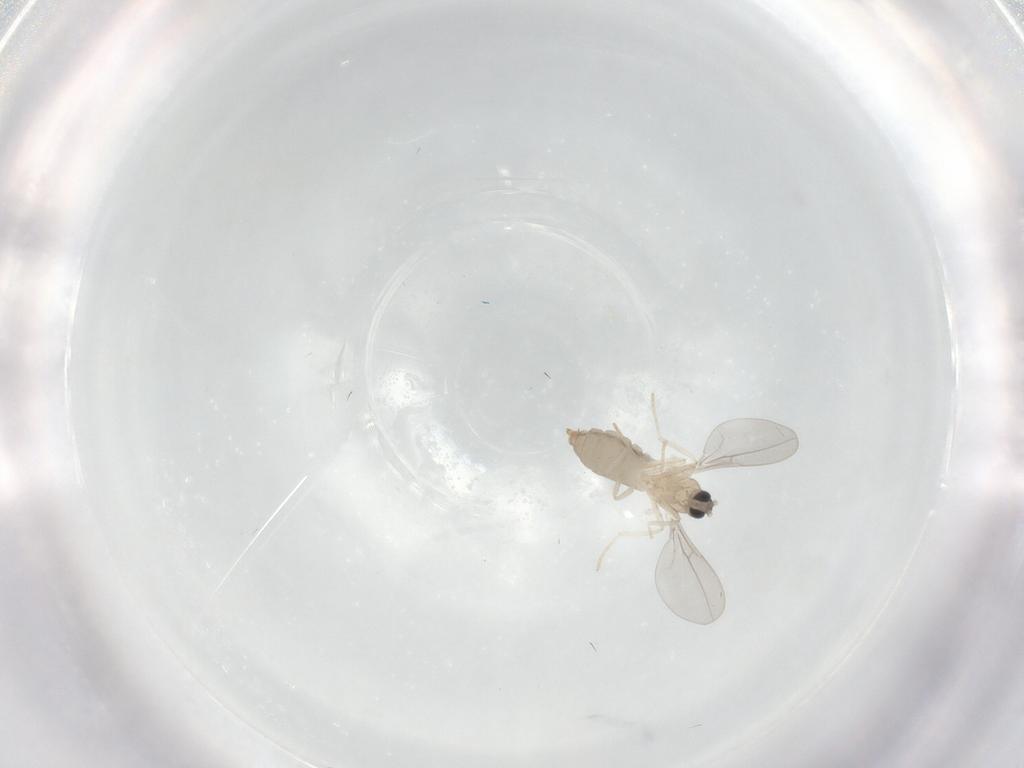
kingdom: Animalia
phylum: Arthropoda
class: Insecta
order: Diptera
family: Cecidomyiidae
